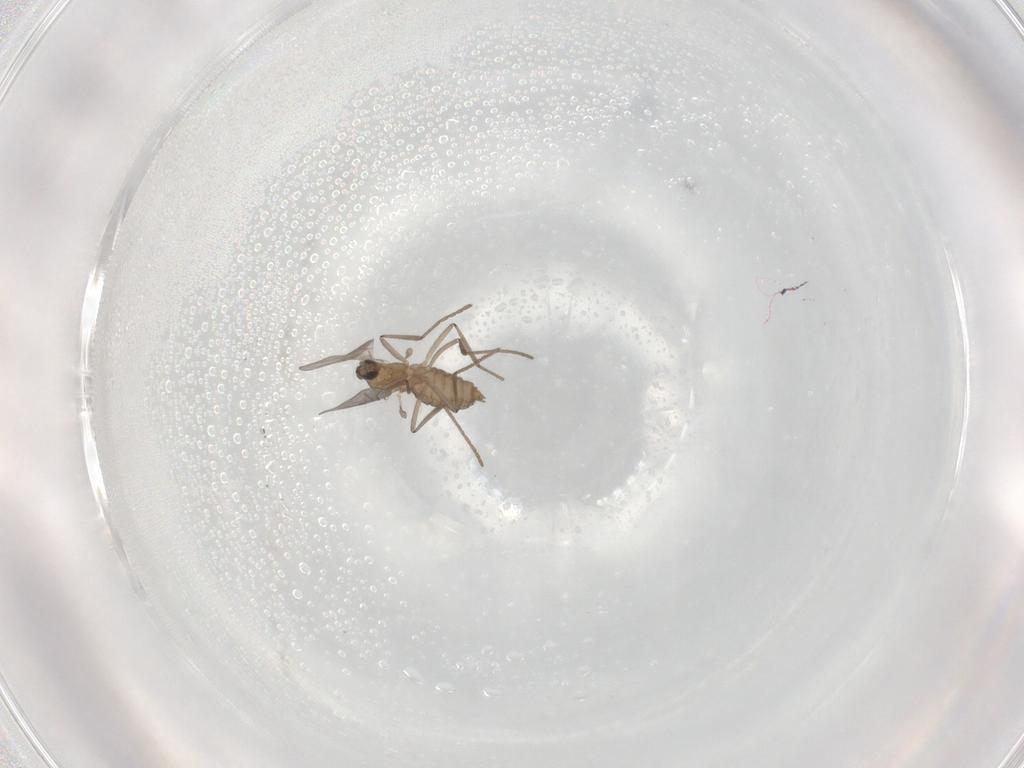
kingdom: Animalia
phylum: Arthropoda
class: Insecta
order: Diptera
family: Cecidomyiidae
